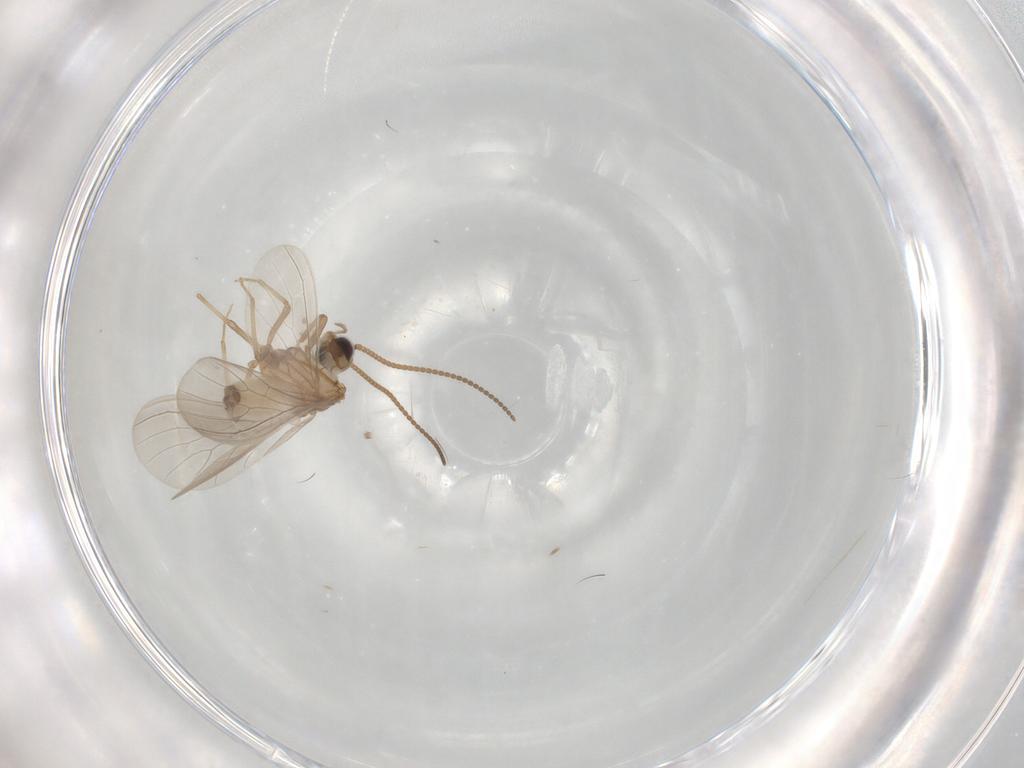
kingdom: Animalia
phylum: Arthropoda
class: Insecta
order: Neuroptera
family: Coniopterygidae
